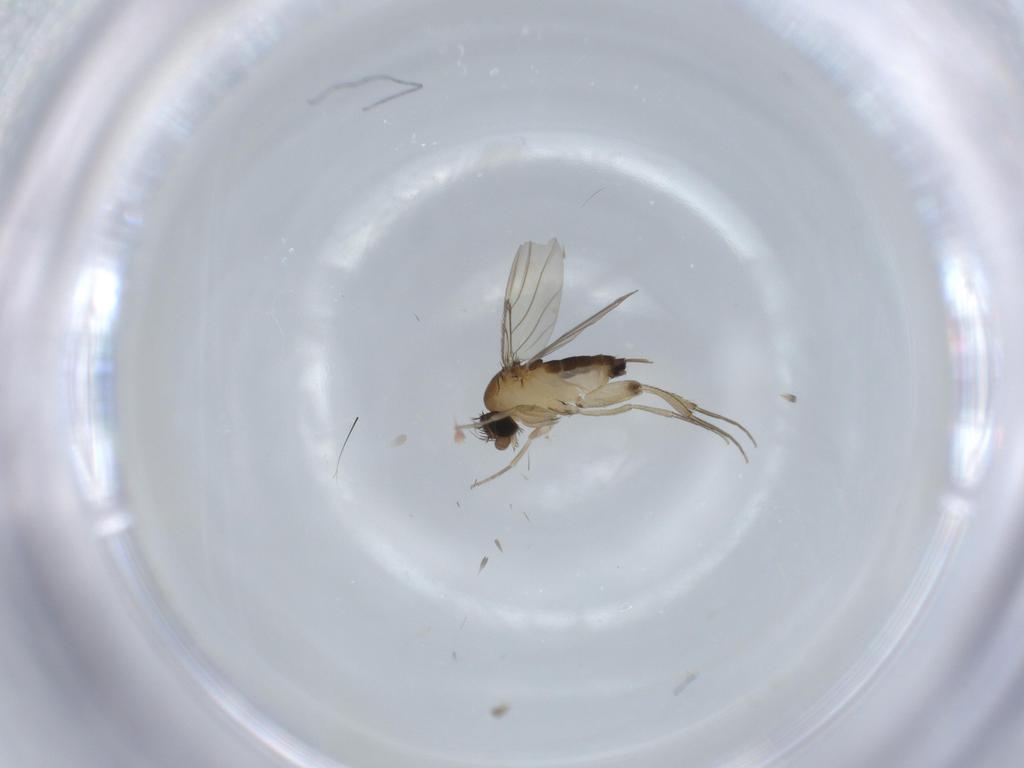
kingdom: Animalia
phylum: Arthropoda
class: Insecta
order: Diptera
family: Phoridae
